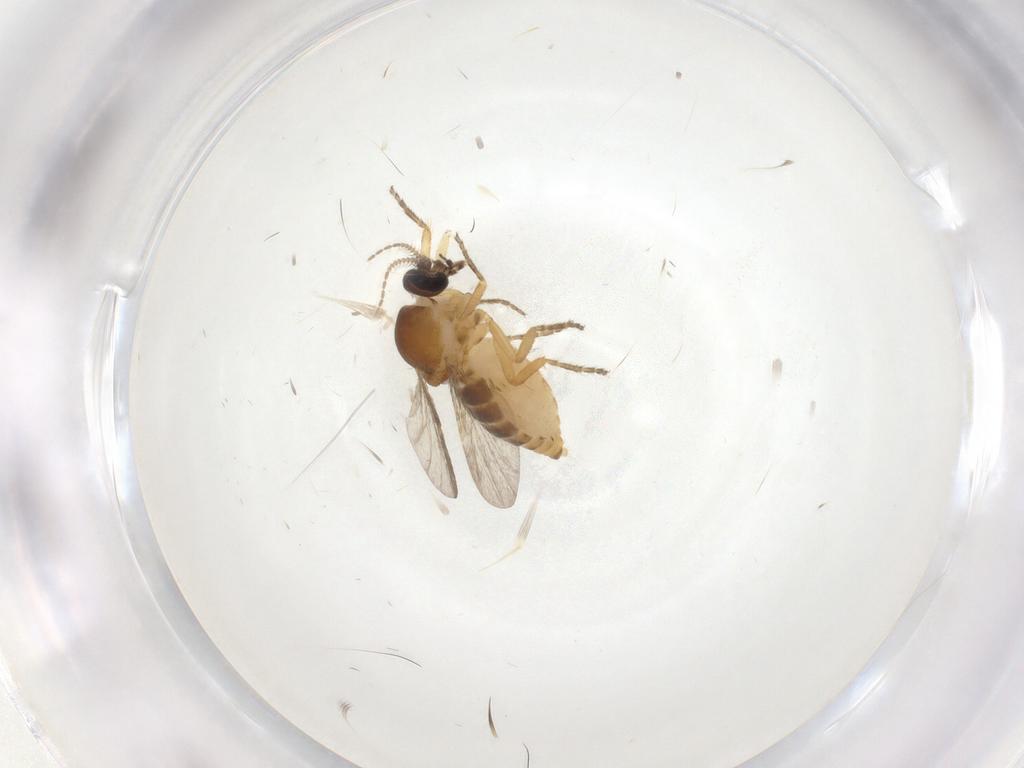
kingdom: Animalia
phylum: Arthropoda
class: Insecta
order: Diptera
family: Ceratopogonidae
